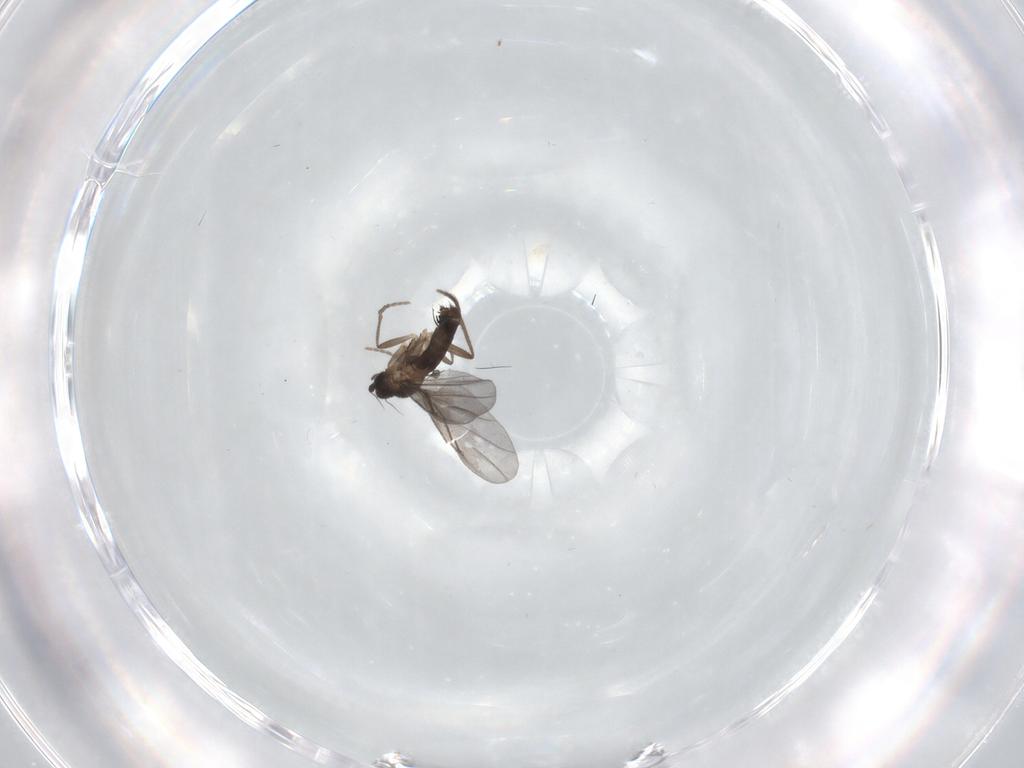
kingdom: Animalia
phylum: Arthropoda
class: Insecta
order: Diptera
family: Phoridae
